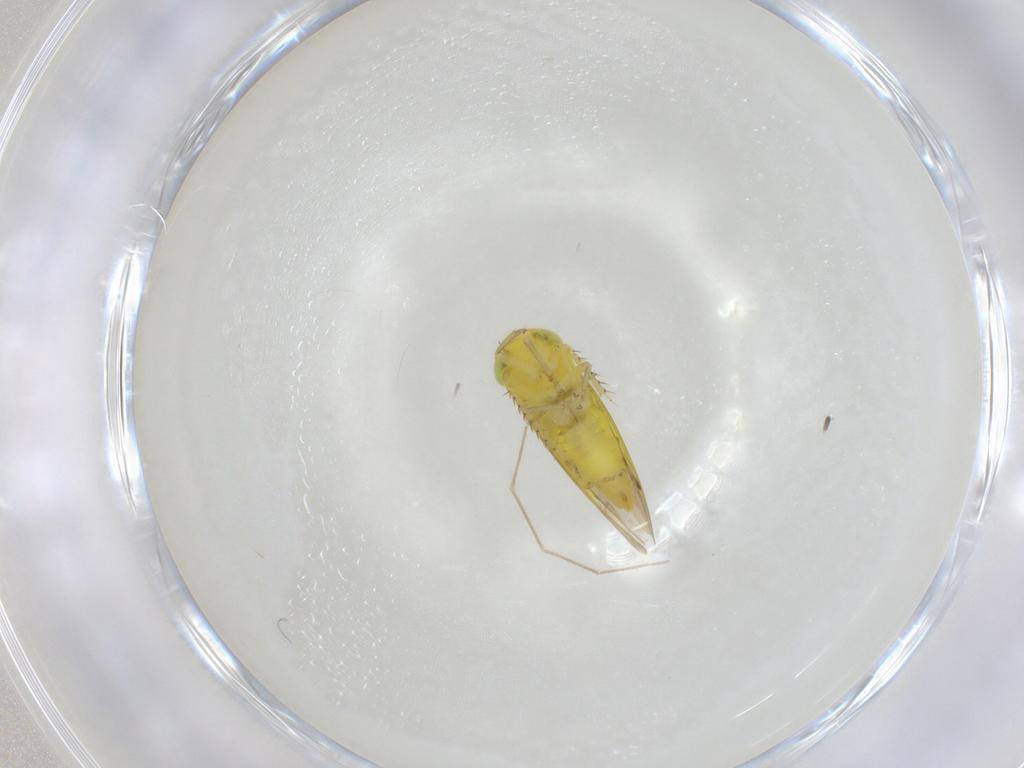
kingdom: Animalia
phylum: Arthropoda
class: Insecta
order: Hemiptera
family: Cicadellidae
